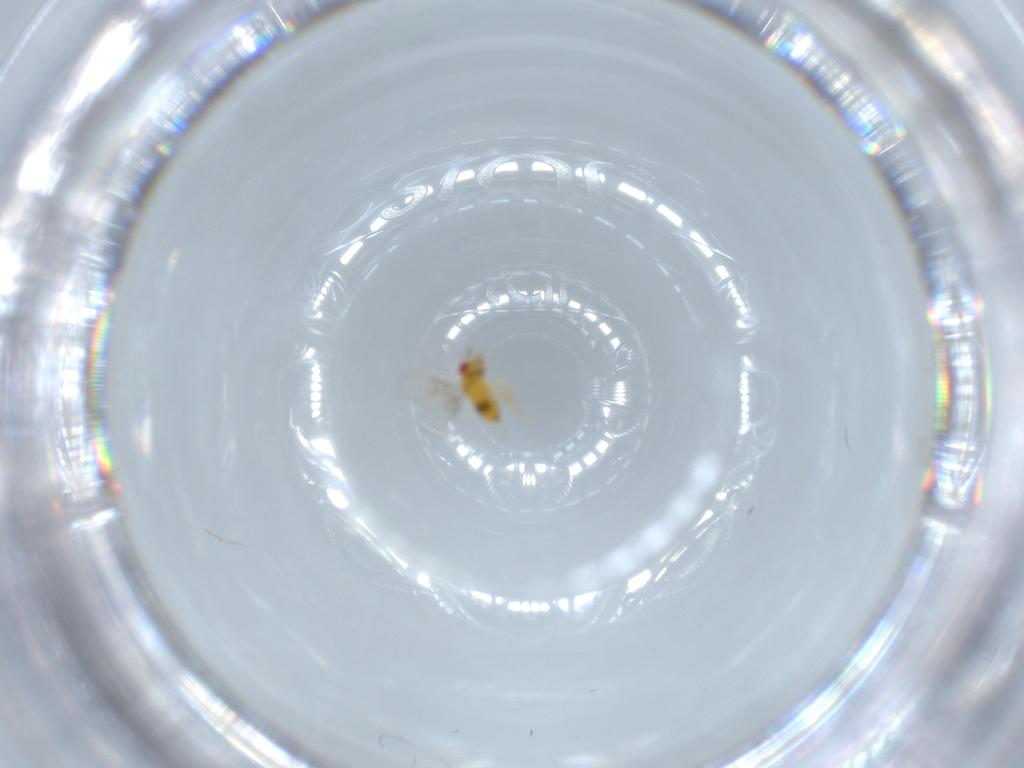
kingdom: Animalia
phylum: Arthropoda
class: Insecta
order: Hymenoptera
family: Trichogrammatidae
